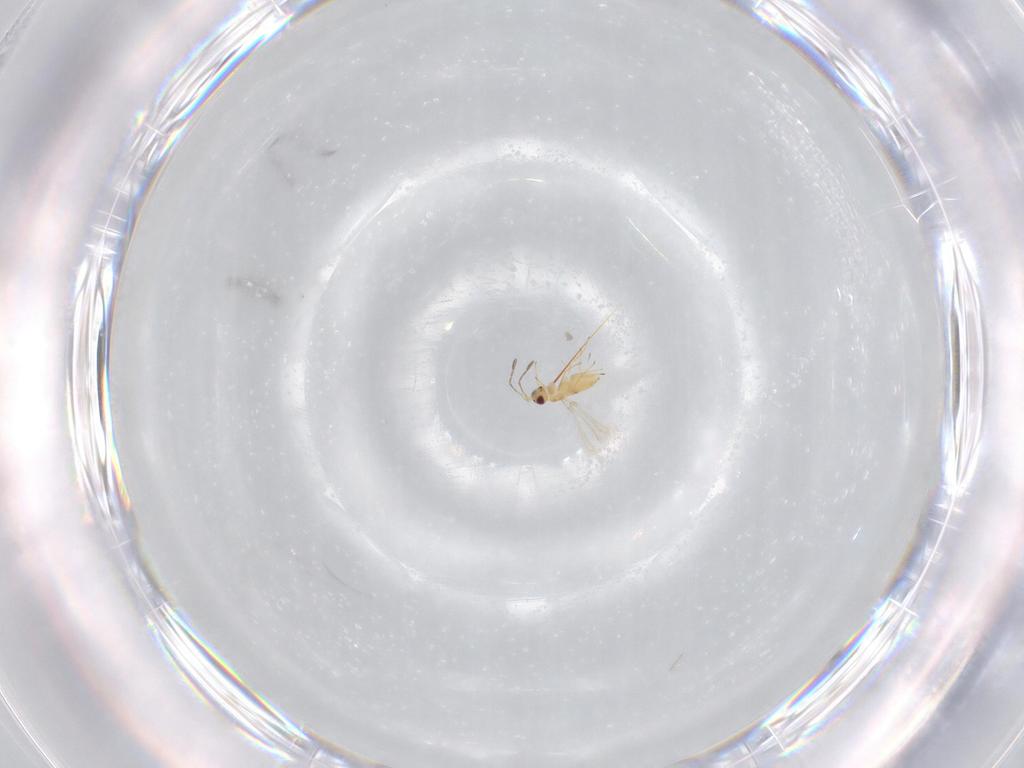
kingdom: Animalia
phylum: Arthropoda
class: Insecta
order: Hymenoptera
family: Mymaridae
